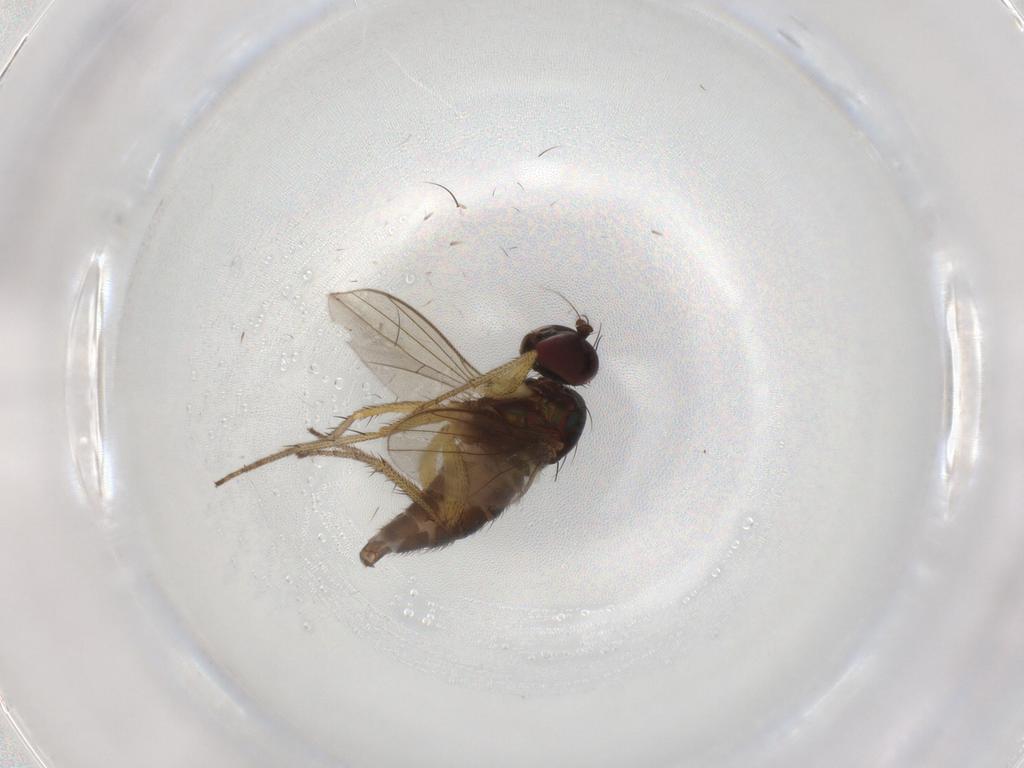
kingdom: Animalia
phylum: Arthropoda
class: Insecta
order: Diptera
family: Dolichopodidae
